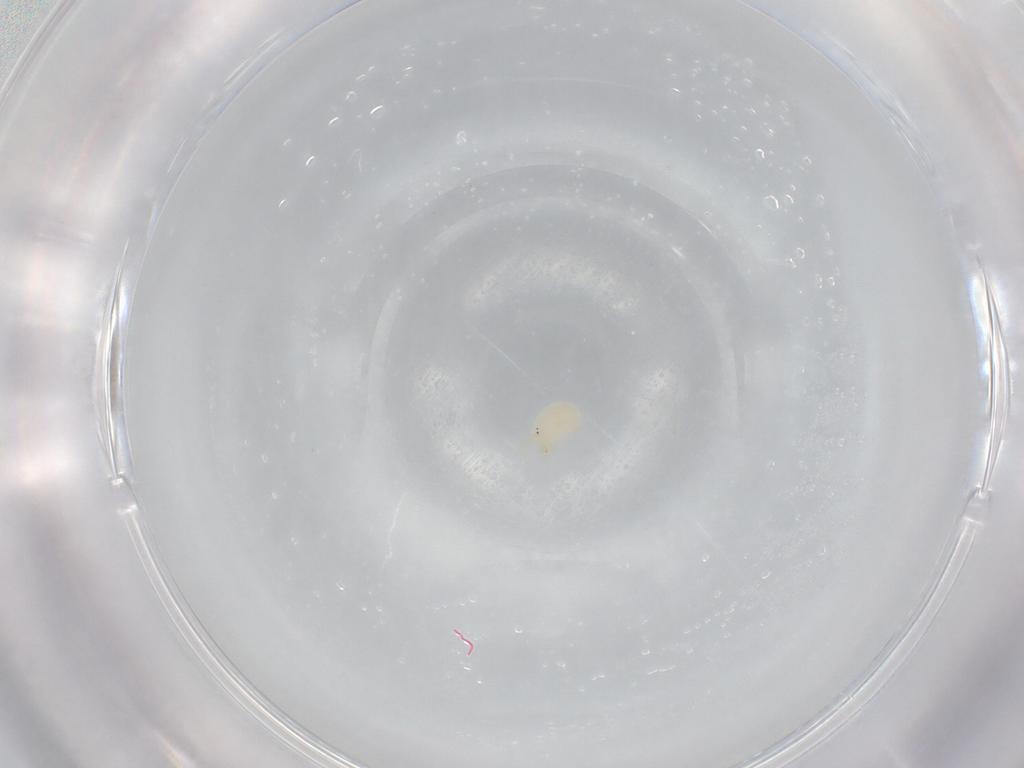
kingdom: Animalia
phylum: Arthropoda
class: Arachnida
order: Trombidiformes
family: Hydryphantidae
